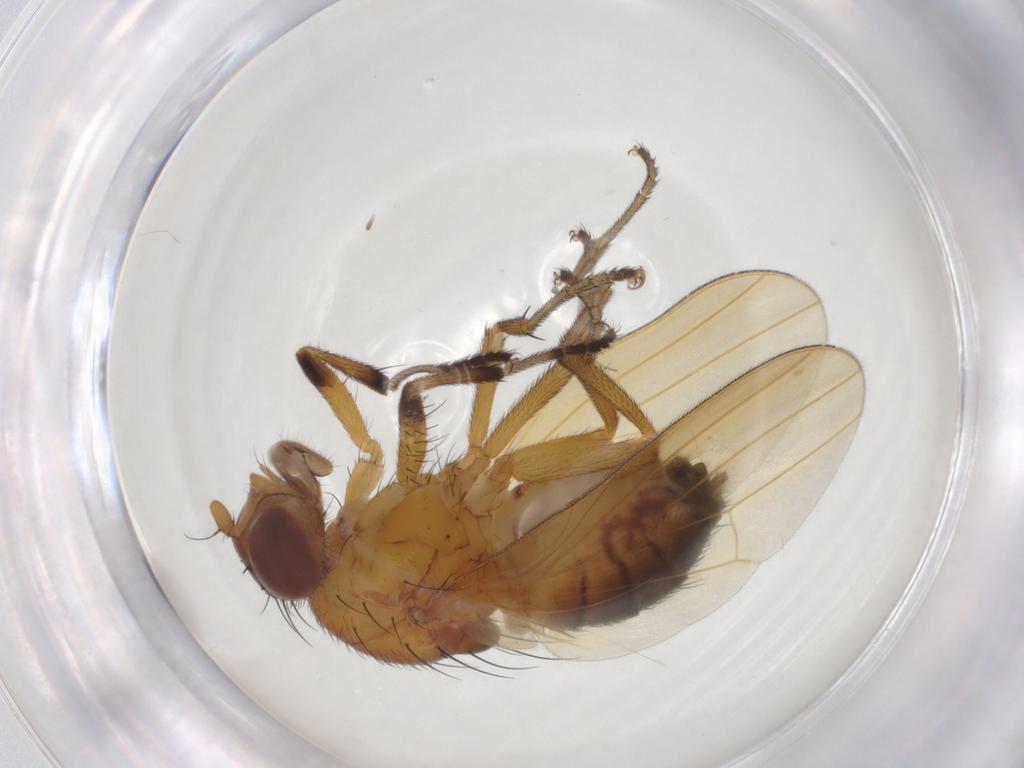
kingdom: Animalia
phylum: Arthropoda
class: Insecta
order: Diptera
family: Cecidomyiidae
